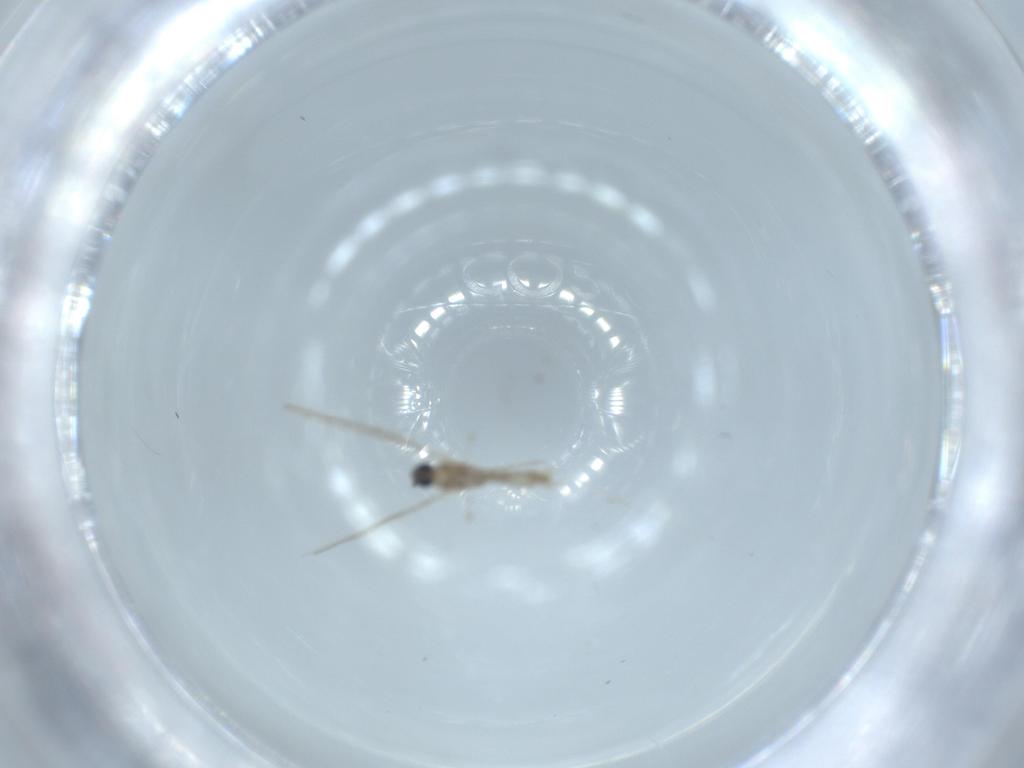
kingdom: Animalia
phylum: Arthropoda
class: Insecta
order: Diptera
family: Cecidomyiidae
